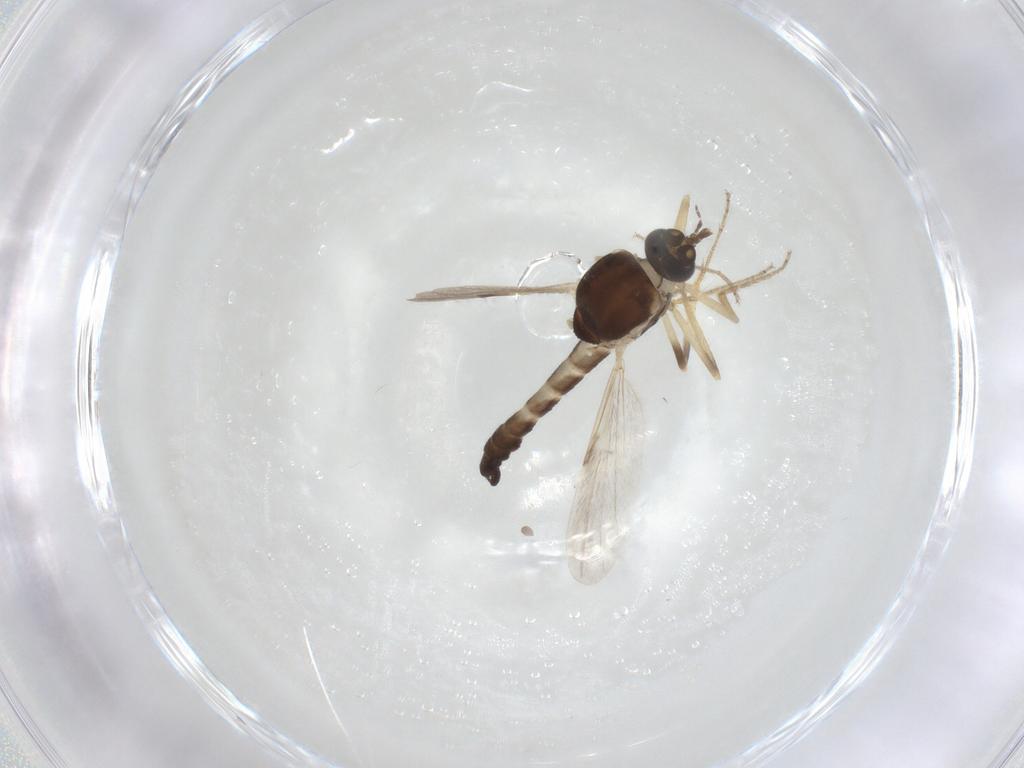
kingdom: Animalia
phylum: Arthropoda
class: Insecta
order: Diptera
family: Ceratopogonidae
